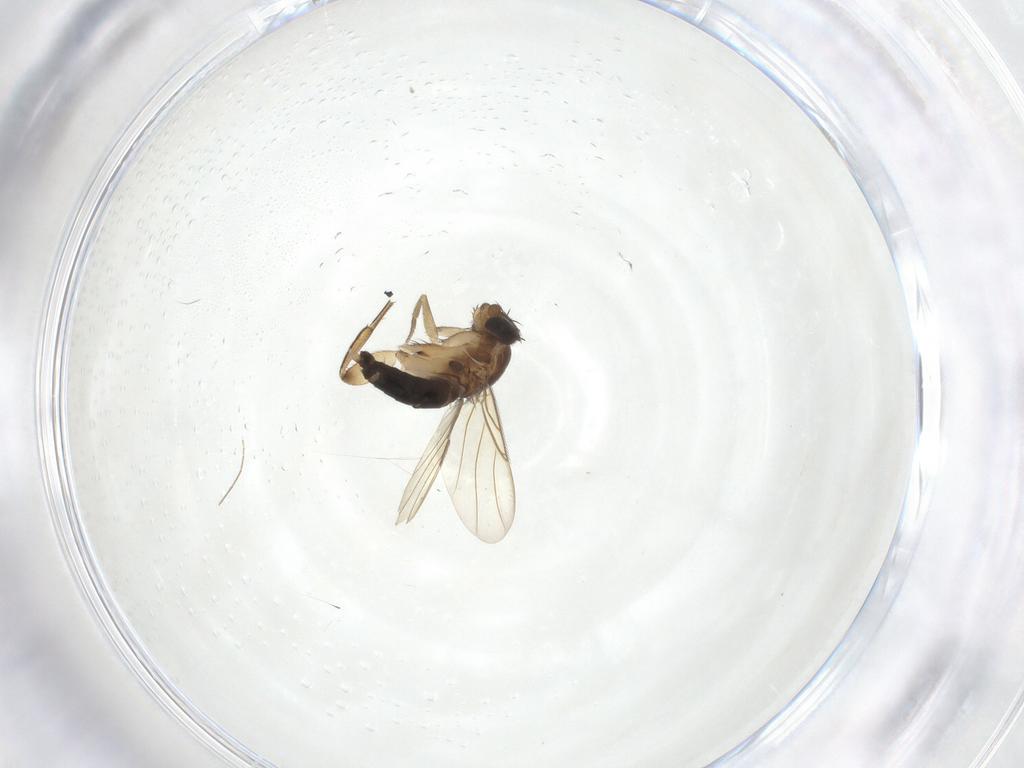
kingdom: Animalia
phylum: Arthropoda
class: Insecta
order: Diptera
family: Phoridae
